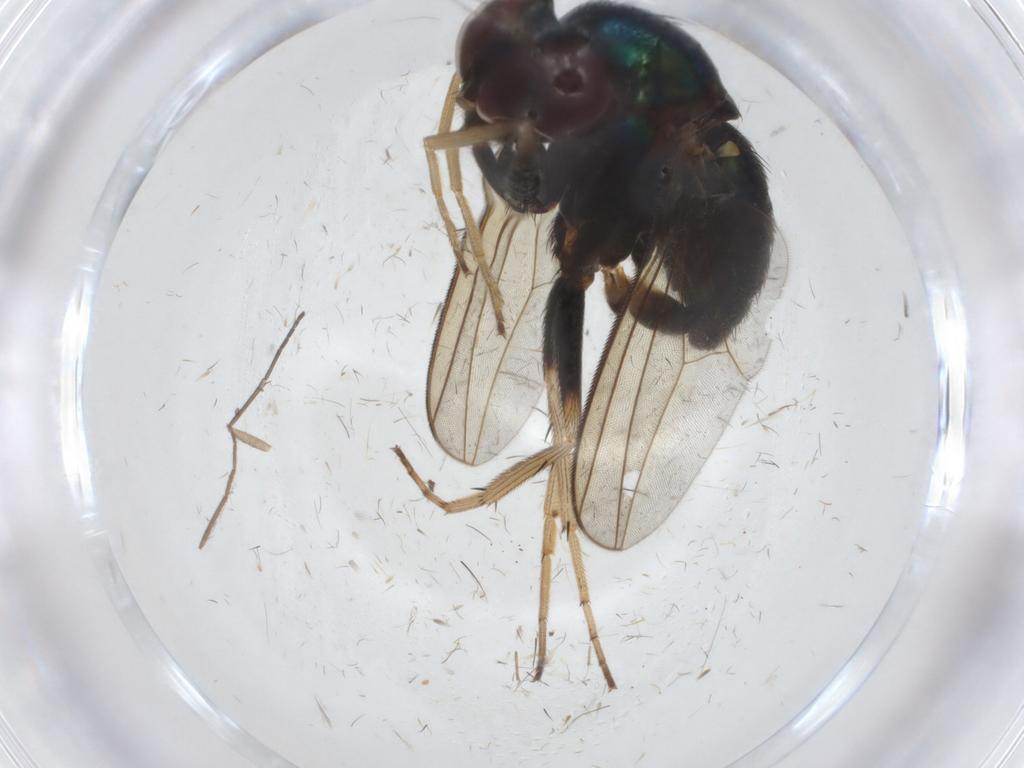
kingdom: Animalia
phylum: Arthropoda
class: Insecta
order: Diptera
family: Dolichopodidae
